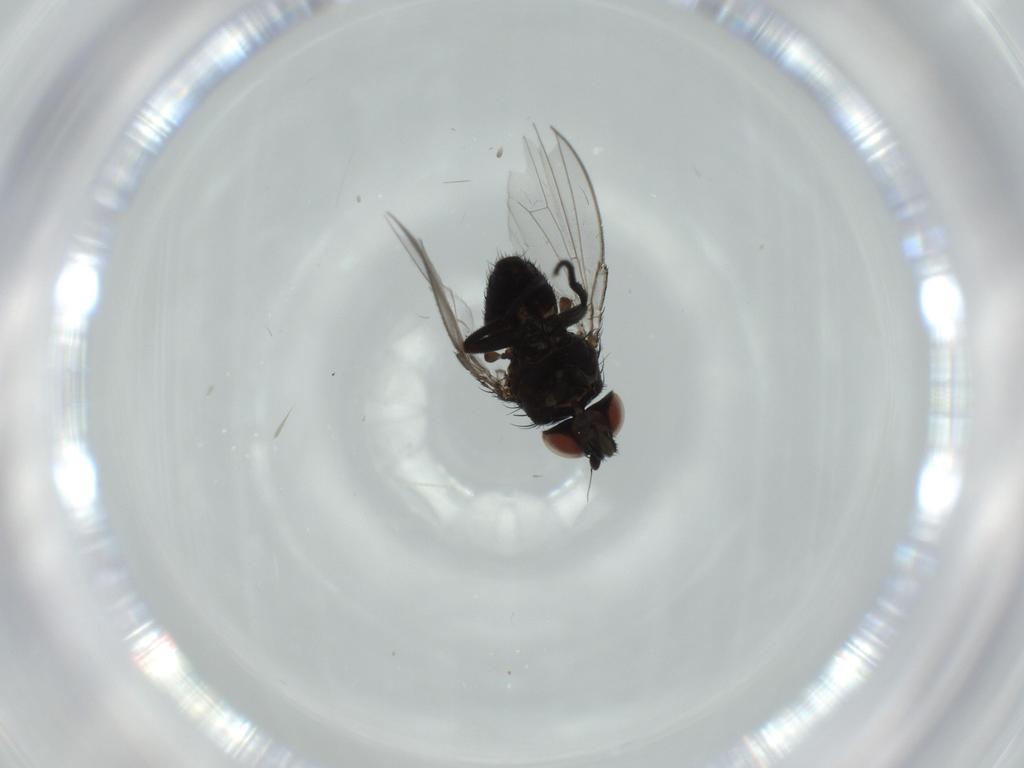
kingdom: Animalia
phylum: Arthropoda
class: Insecta
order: Diptera
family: Milichiidae
